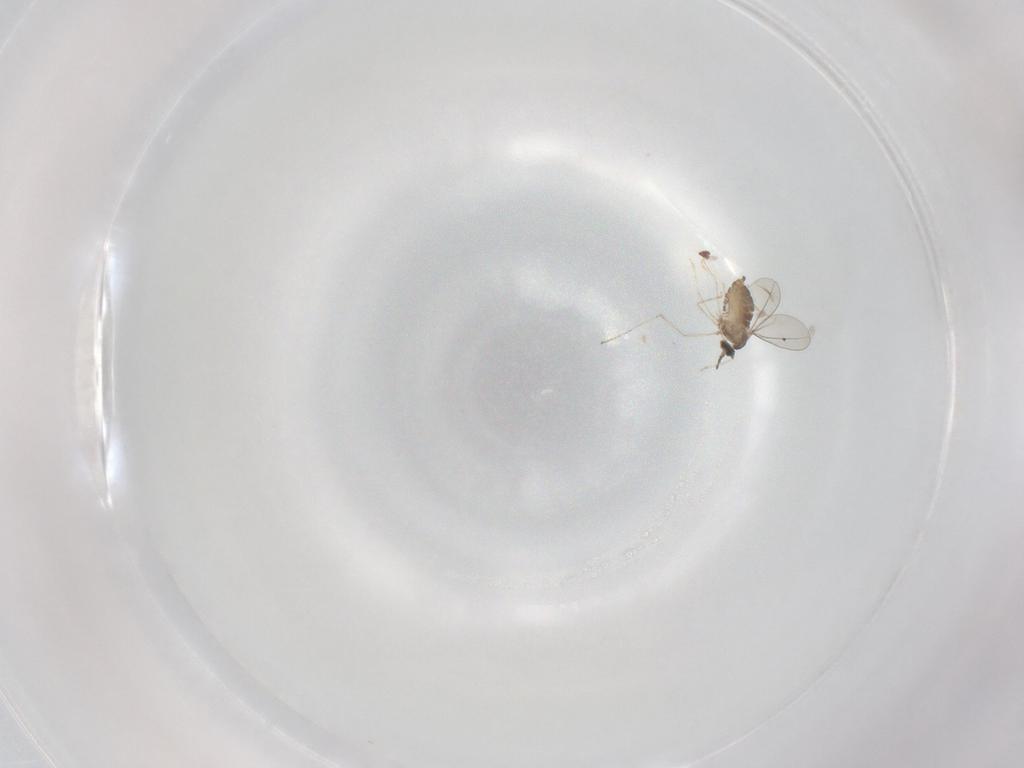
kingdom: Animalia
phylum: Arthropoda
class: Insecta
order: Diptera
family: Cecidomyiidae
